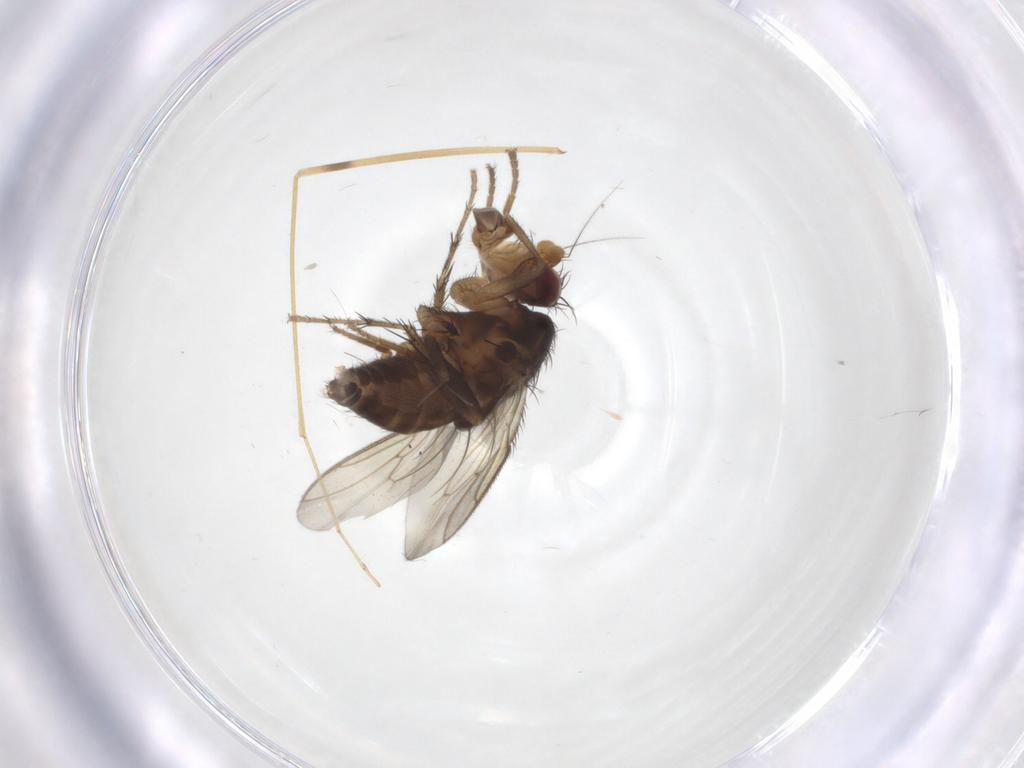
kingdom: Animalia
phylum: Arthropoda
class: Insecta
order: Diptera
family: Sphaeroceridae
